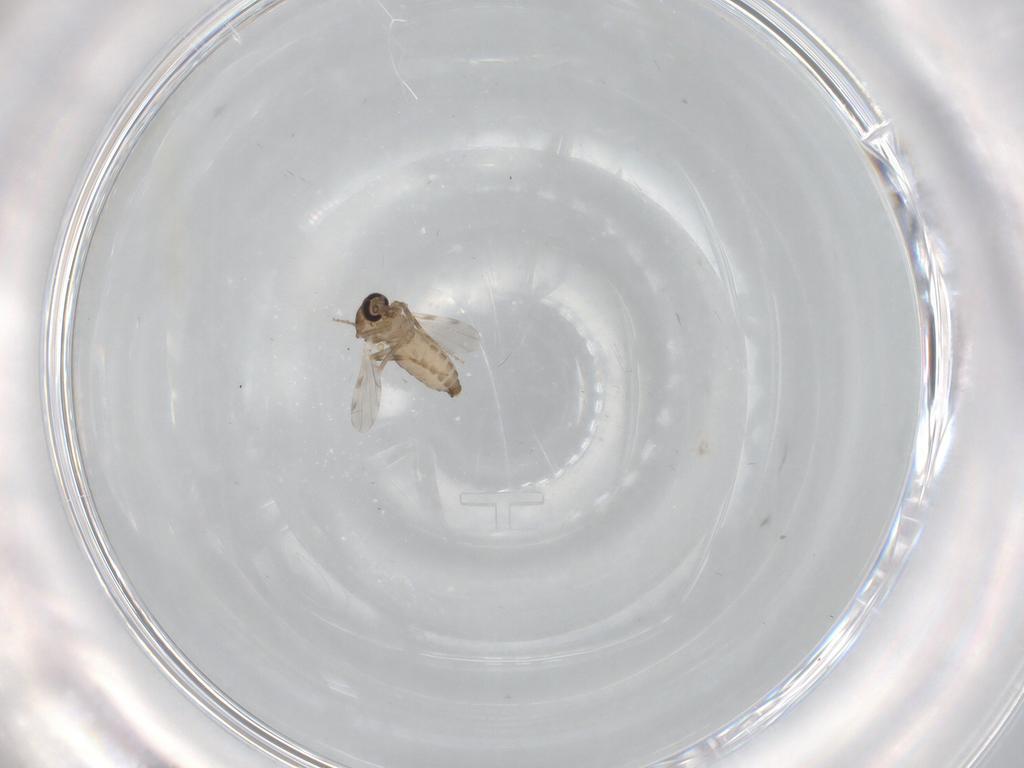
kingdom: Animalia
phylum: Arthropoda
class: Insecta
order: Diptera
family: Ceratopogonidae
